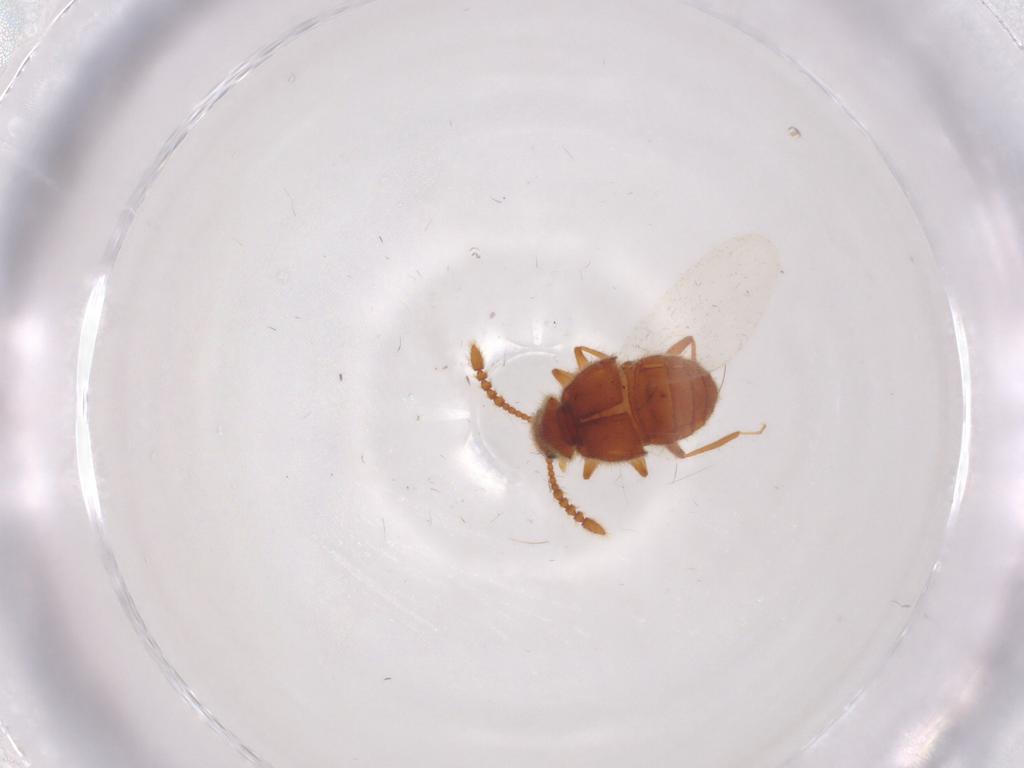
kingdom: Animalia
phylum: Arthropoda
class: Insecta
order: Coleoptera
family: Staphylinidae
